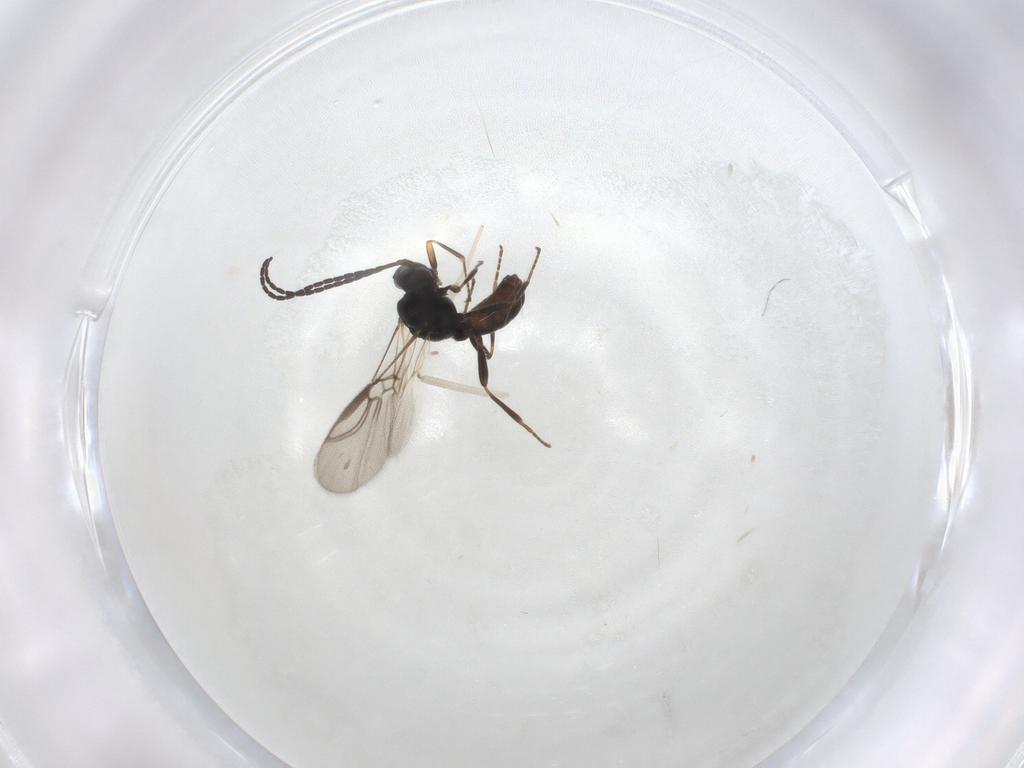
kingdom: Animalia
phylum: Arthropoda
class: Insecta
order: Hymenoptera
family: Braconidae
